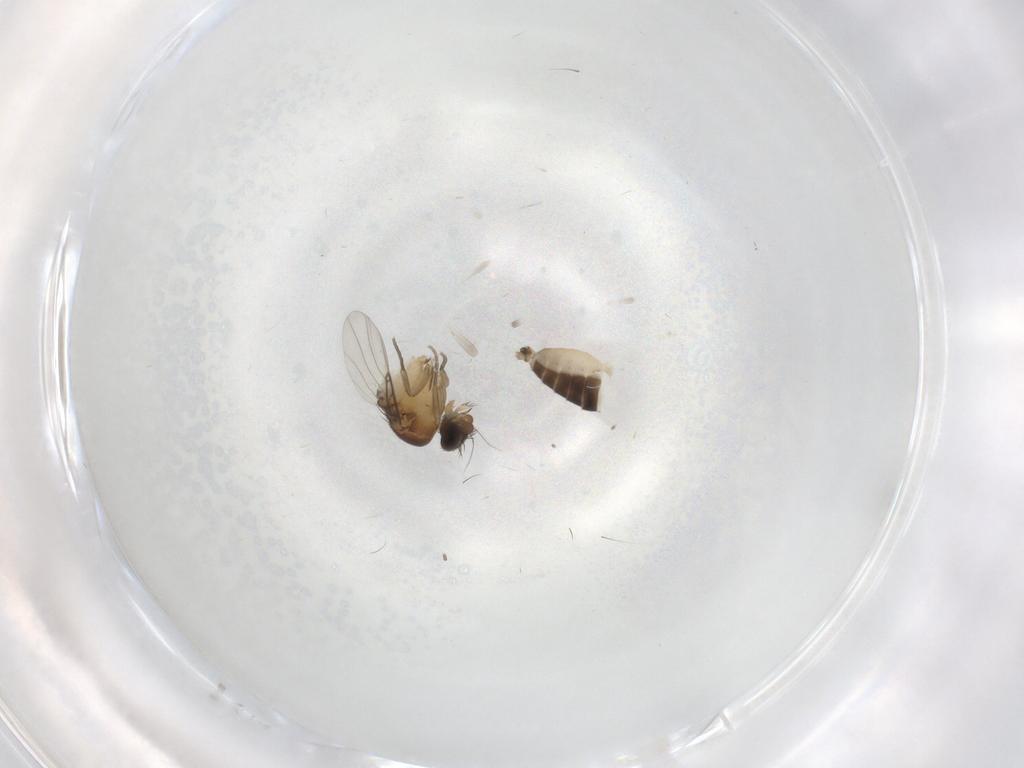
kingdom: Animalia
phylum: Arthropoda
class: Insecta
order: Diptera
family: Phoridae
